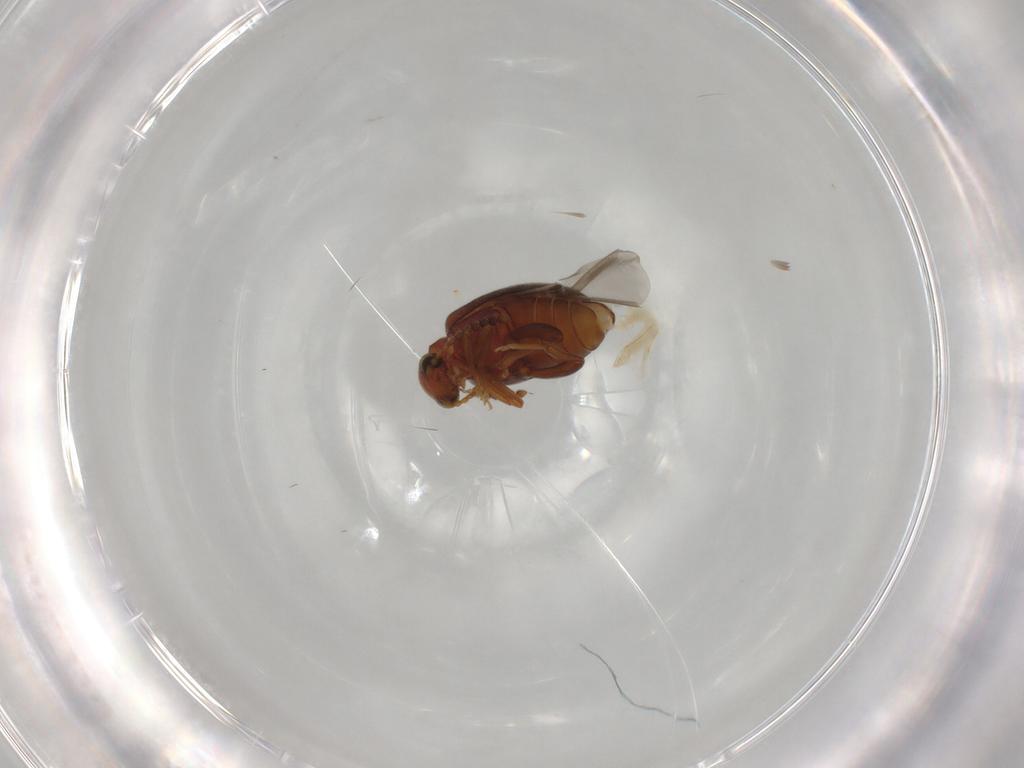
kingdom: Animalia
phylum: Arthropoda
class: Insecta
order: Coleoptera
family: Aderidae
